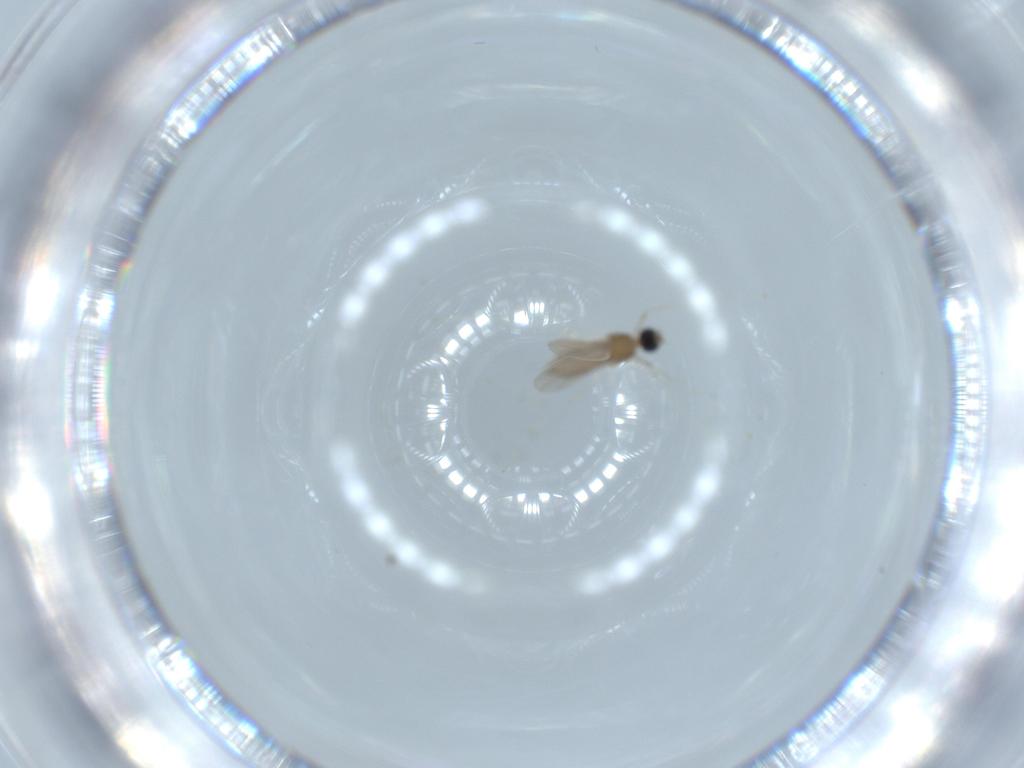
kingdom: Animalia
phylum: Arthropoda
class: Insecta
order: Diptera
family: Cecidomyiidae
